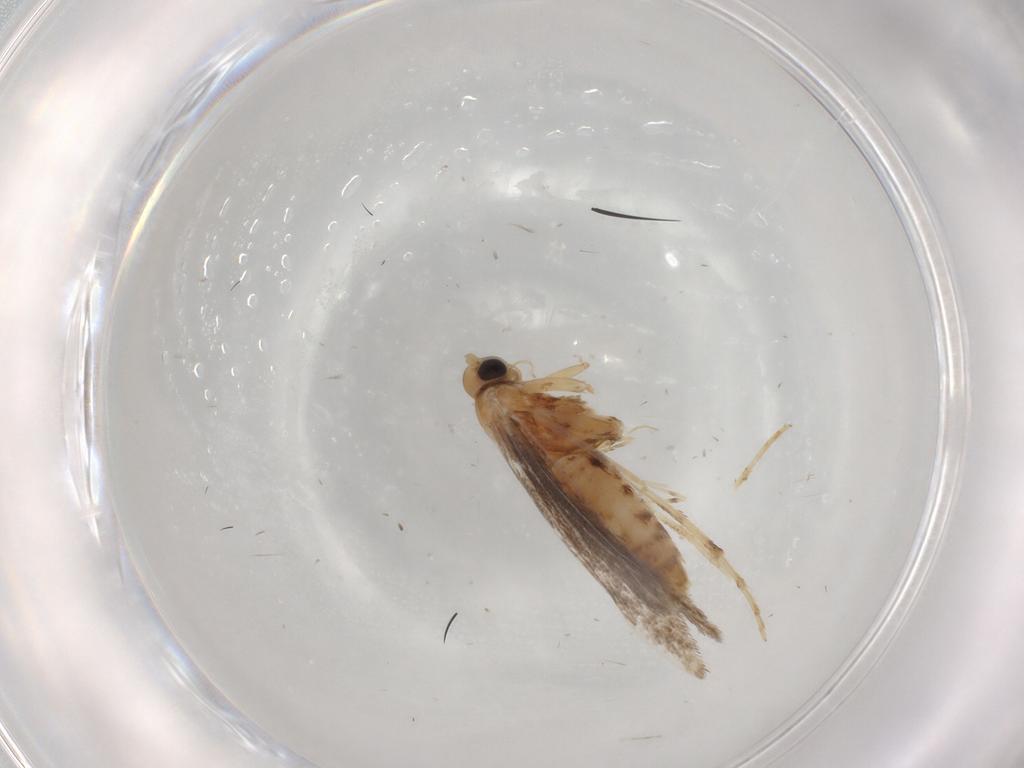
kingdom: Animalia
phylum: Arthropoda
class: Insecta
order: Lepidoptera
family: Gracillariidae
